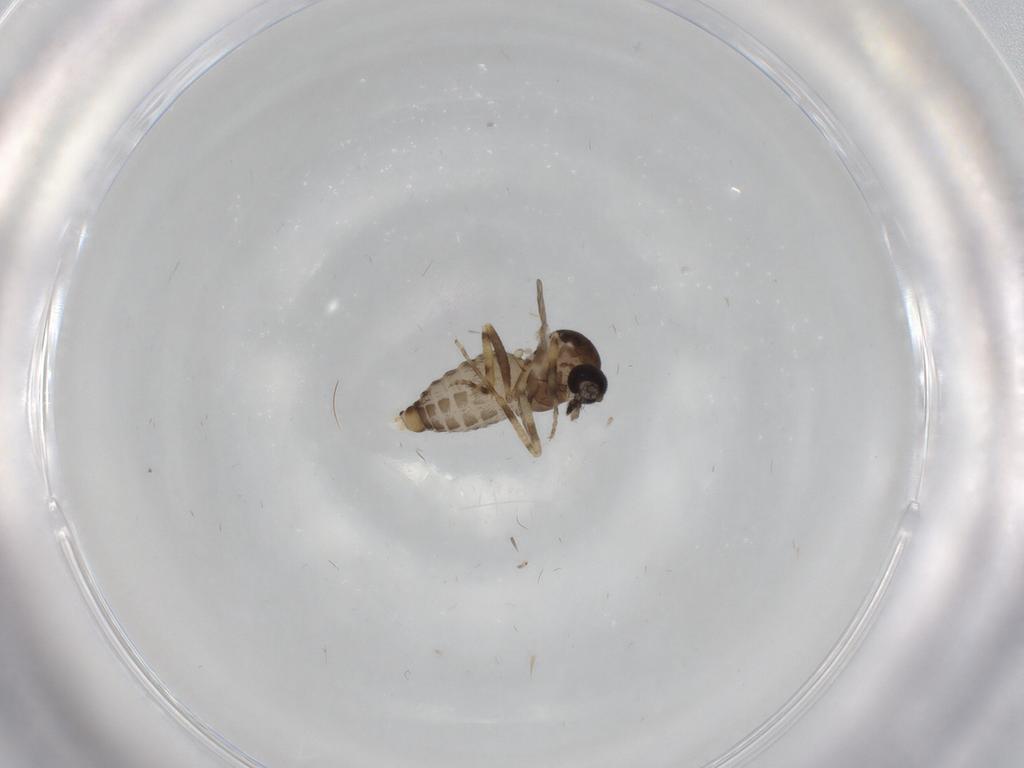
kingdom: Animalia
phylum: Arthropoda
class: Insecta
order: Diptera
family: Ceratopogonidae
